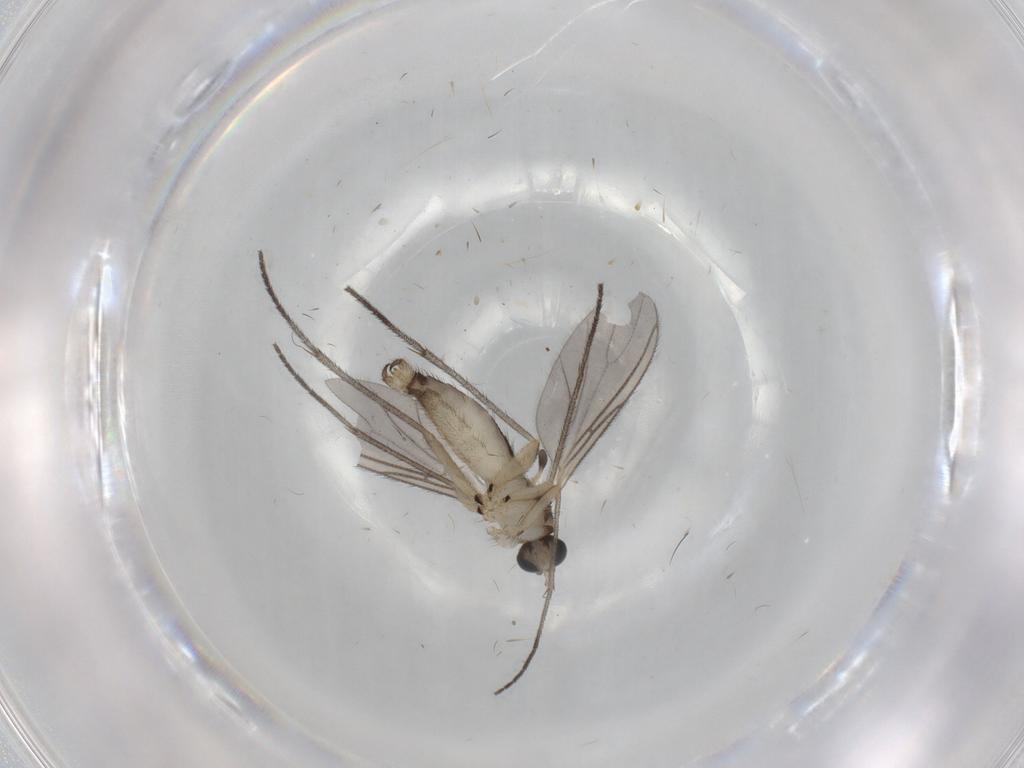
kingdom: Animalia
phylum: Arthropoda
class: Insecta
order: Diptera
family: Sciaridae
